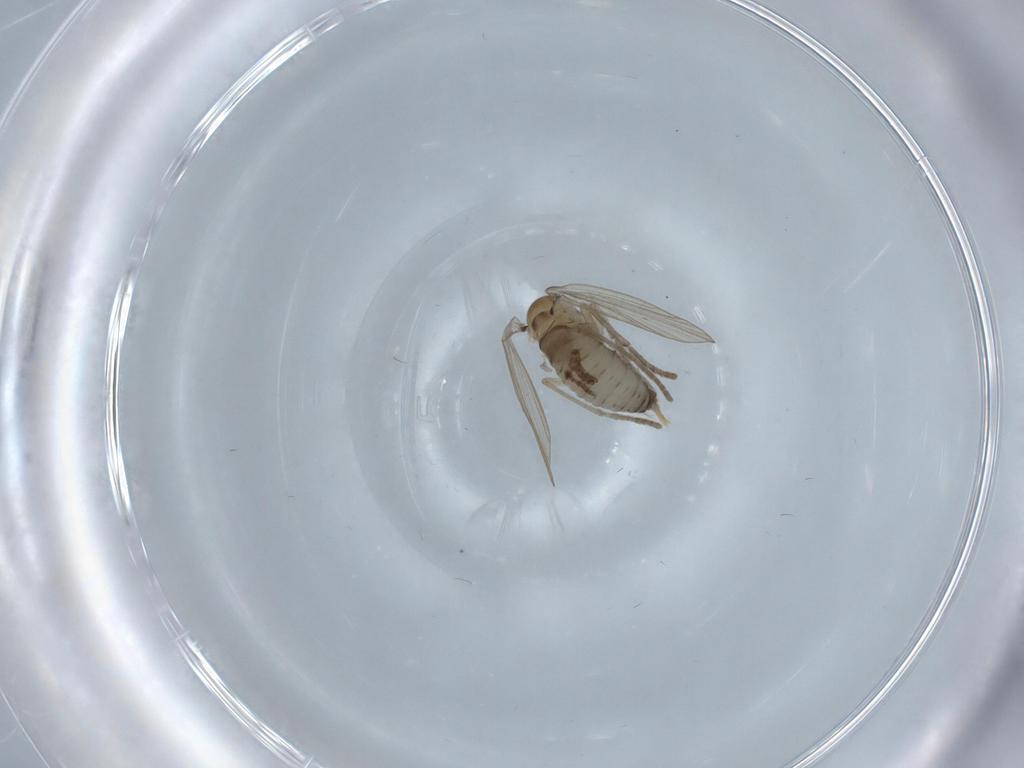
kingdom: Animalia
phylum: Arthropoda
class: Insecta
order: Diptera
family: Psychodidae
